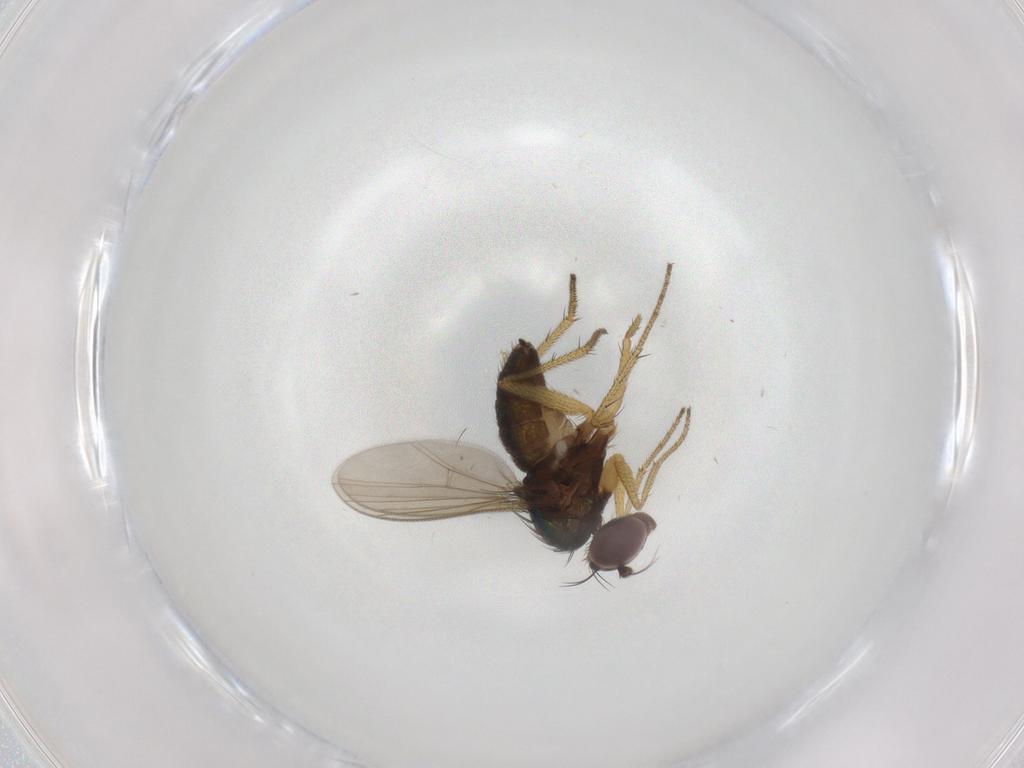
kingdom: Animalia
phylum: Arthropoda
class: Insecta
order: Diptera
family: Dolichopodidae
